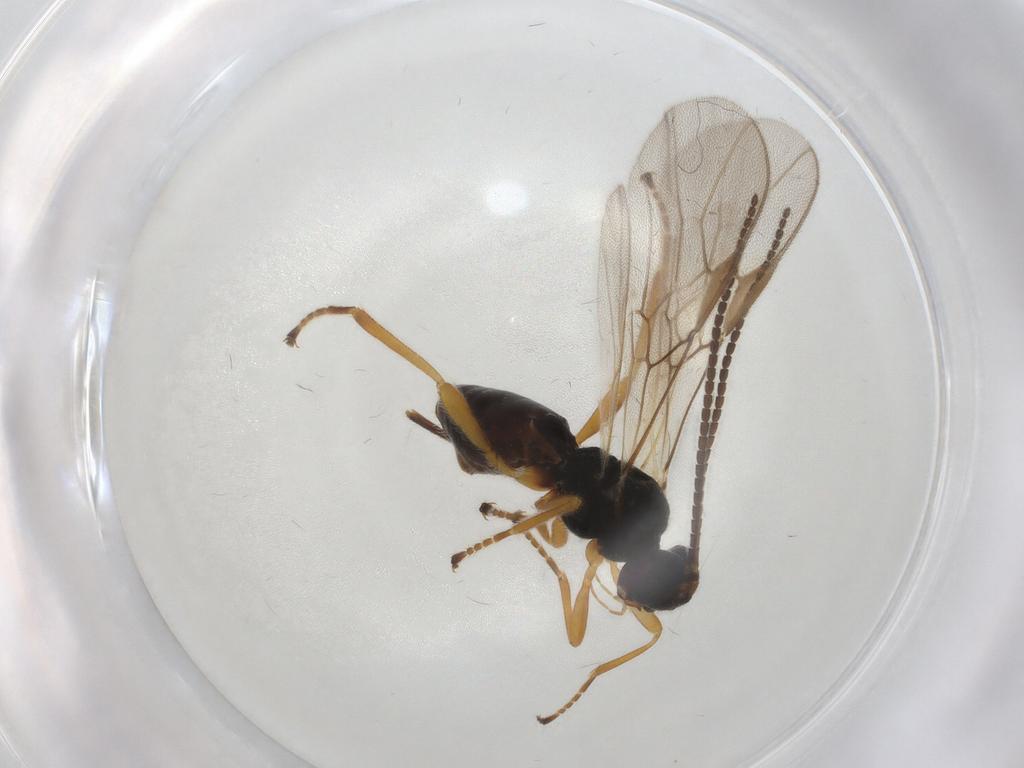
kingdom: Animalia
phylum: Arthropoda
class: Insecta
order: Hymenoptera
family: Braconidae
